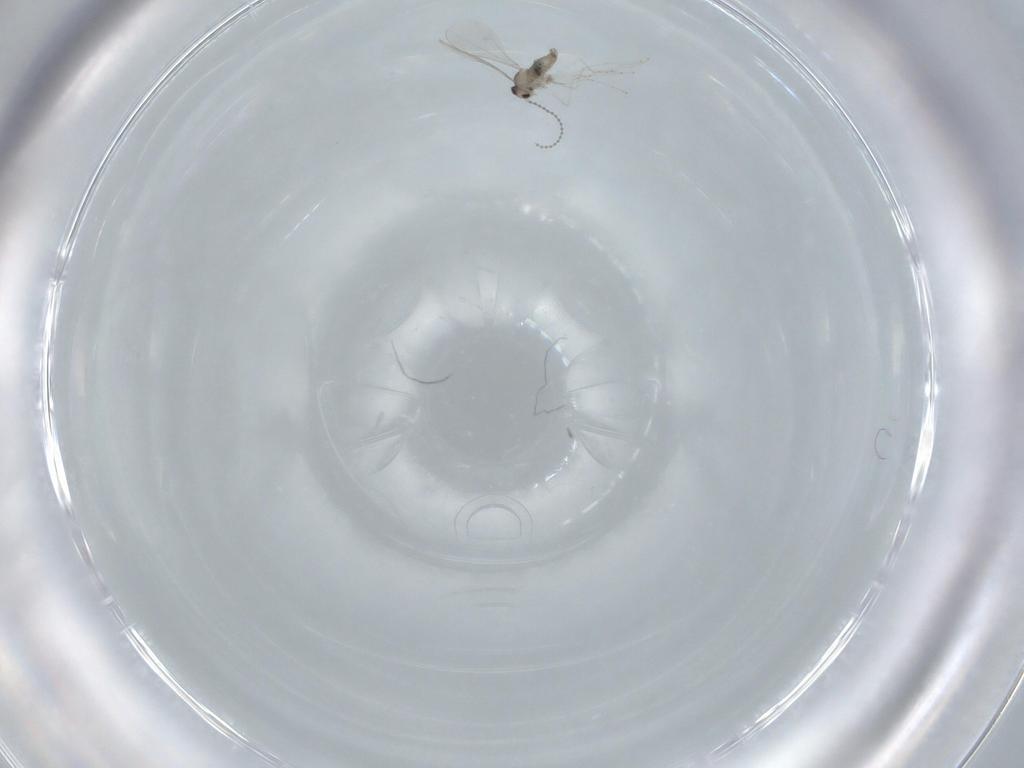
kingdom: Animalia
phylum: Arthropoda
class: Insecta
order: Diptera
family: Cecidomyiidae
